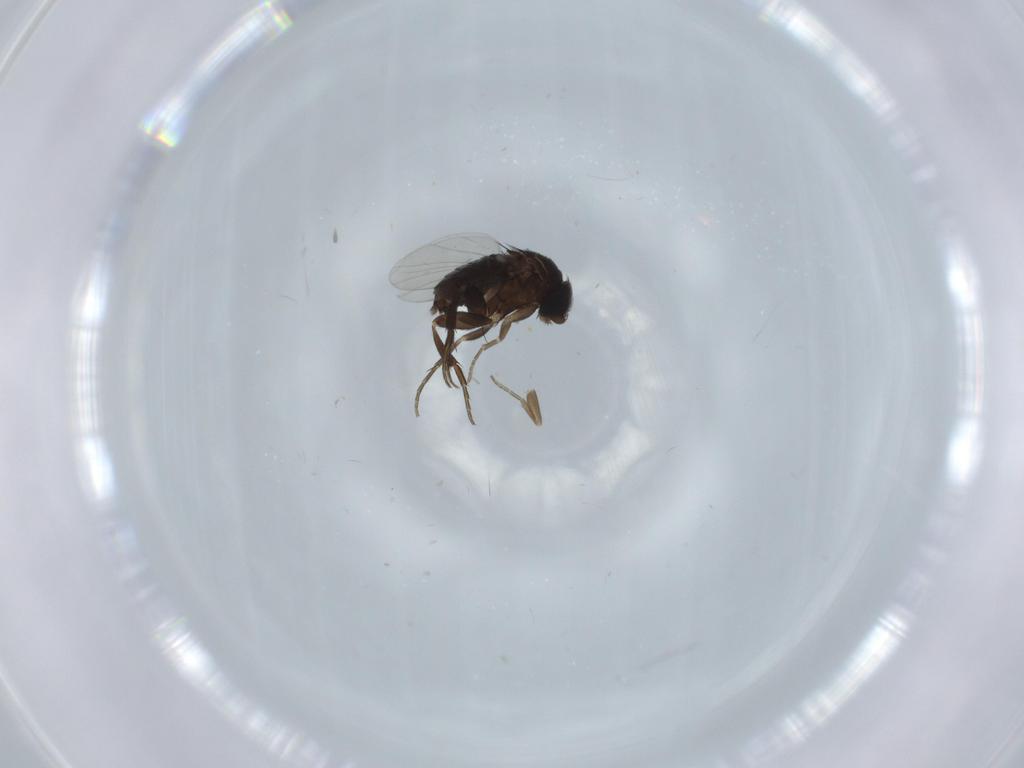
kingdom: Animalia
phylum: Arthropoda
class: Insecta
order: Diptera
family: Phoridae
